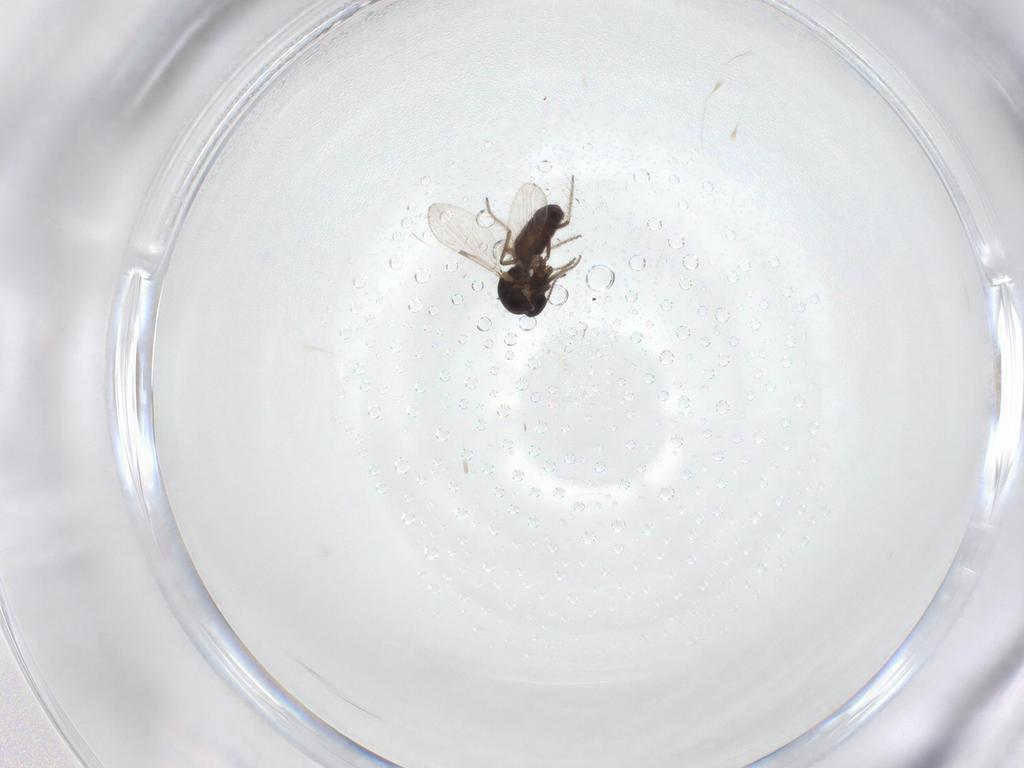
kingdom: Animalia
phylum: Arthropoda
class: Insecta
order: Diptera
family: Ceratopogonidae
